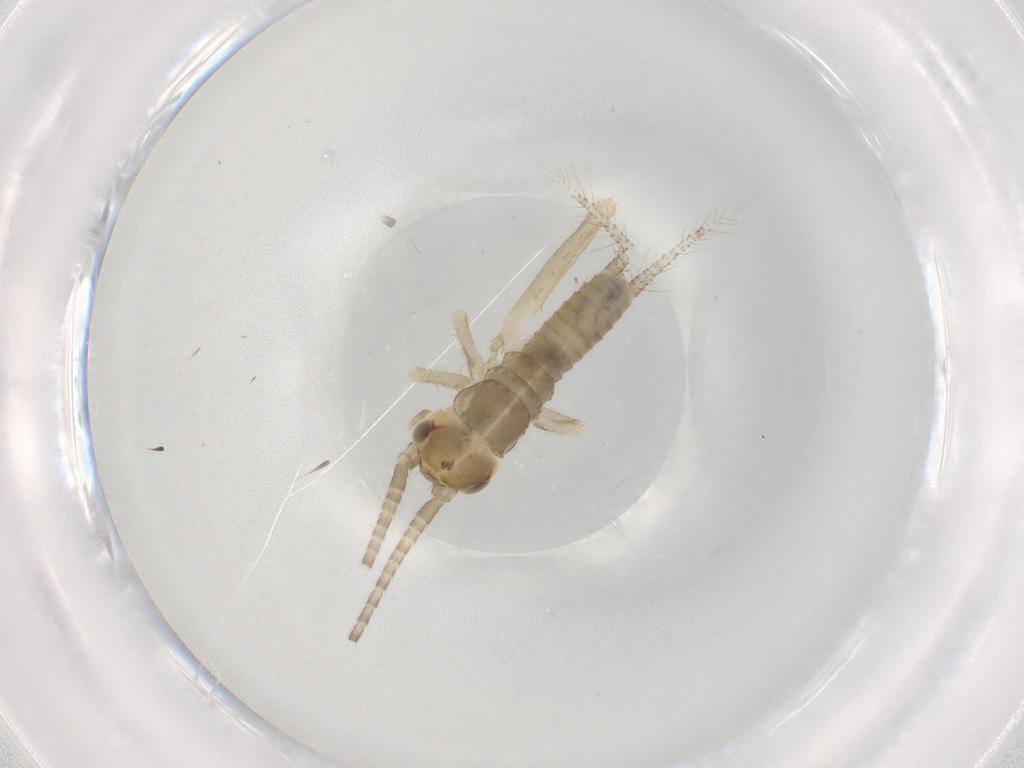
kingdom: Animalia
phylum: Arthropoda
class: Insecta
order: Orthoptera
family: Gryllidae
